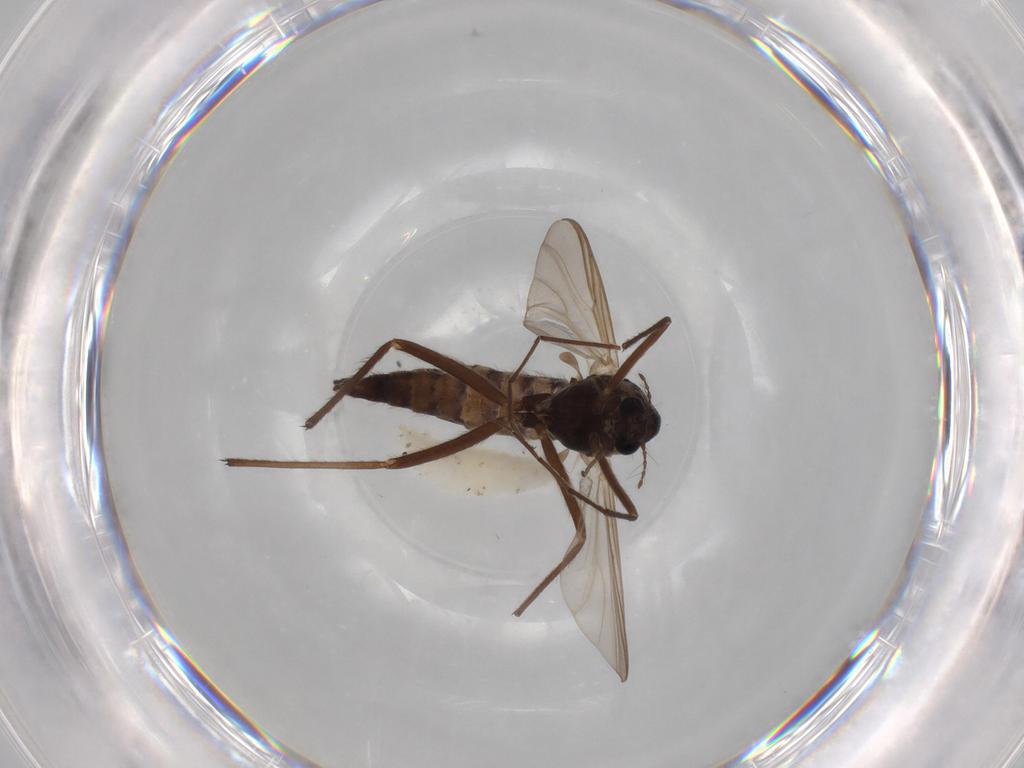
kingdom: Animalia
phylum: Arthropoda
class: Insecta
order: Diptera
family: Chironomidae
